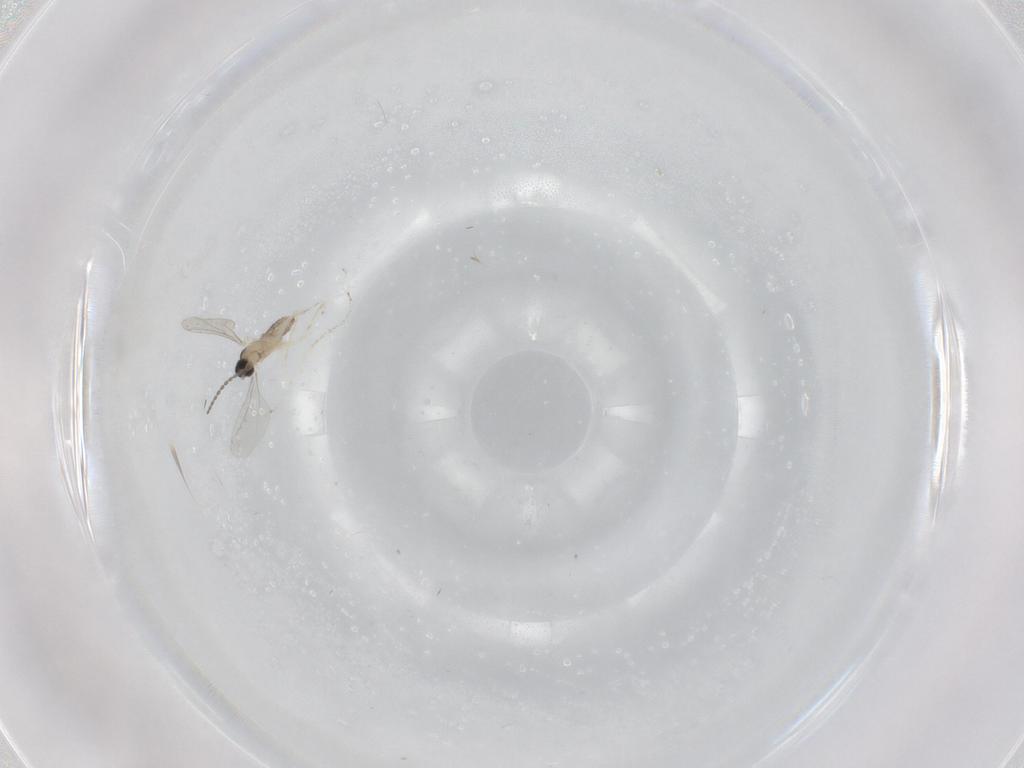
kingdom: Animalia
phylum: Arthropoda
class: Insecta
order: Diptera
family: Cecidomyiidae
